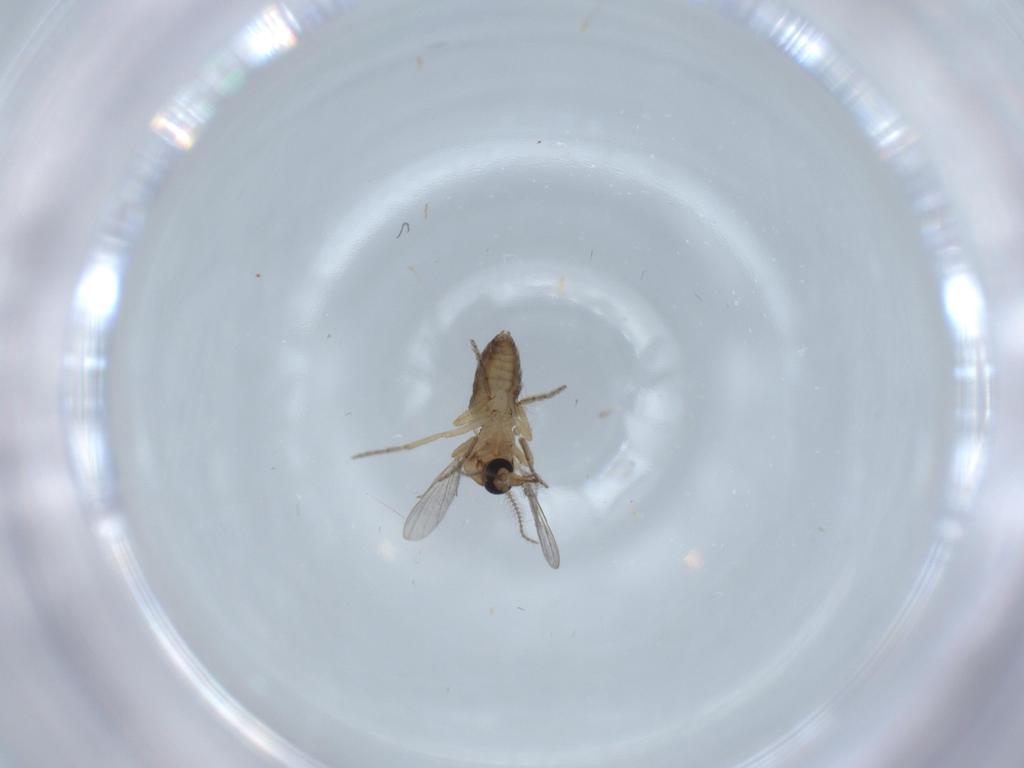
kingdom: Animalia
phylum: Arthropoda
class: Insecta
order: Diptera
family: Ceratopogonidae
